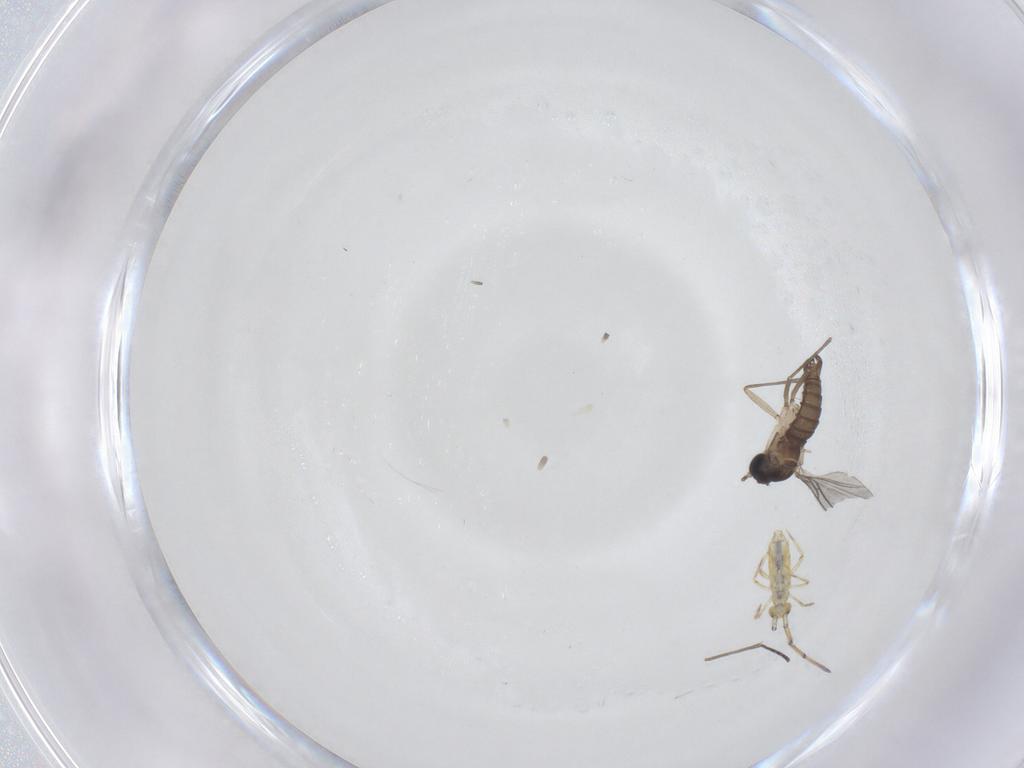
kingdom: Animalia
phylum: Arthropoda
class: Insecta
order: Diptera
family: Sciaridae
